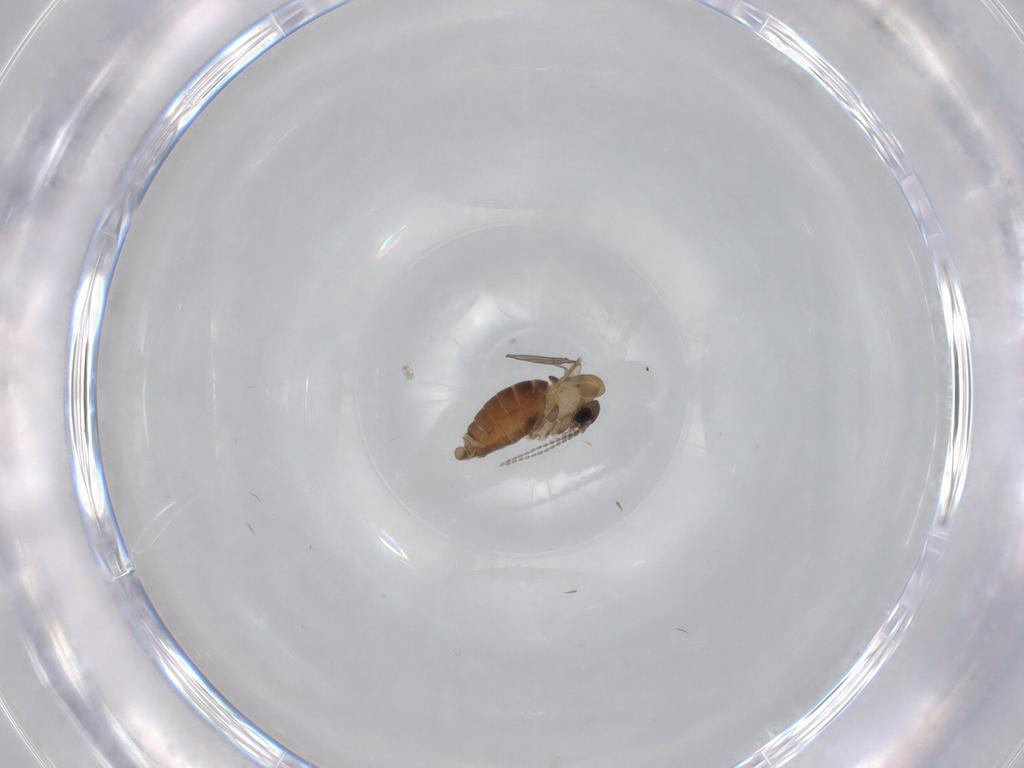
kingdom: Animalia
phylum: Arthropoda
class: Insecta
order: Diptera
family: Psychodidae
